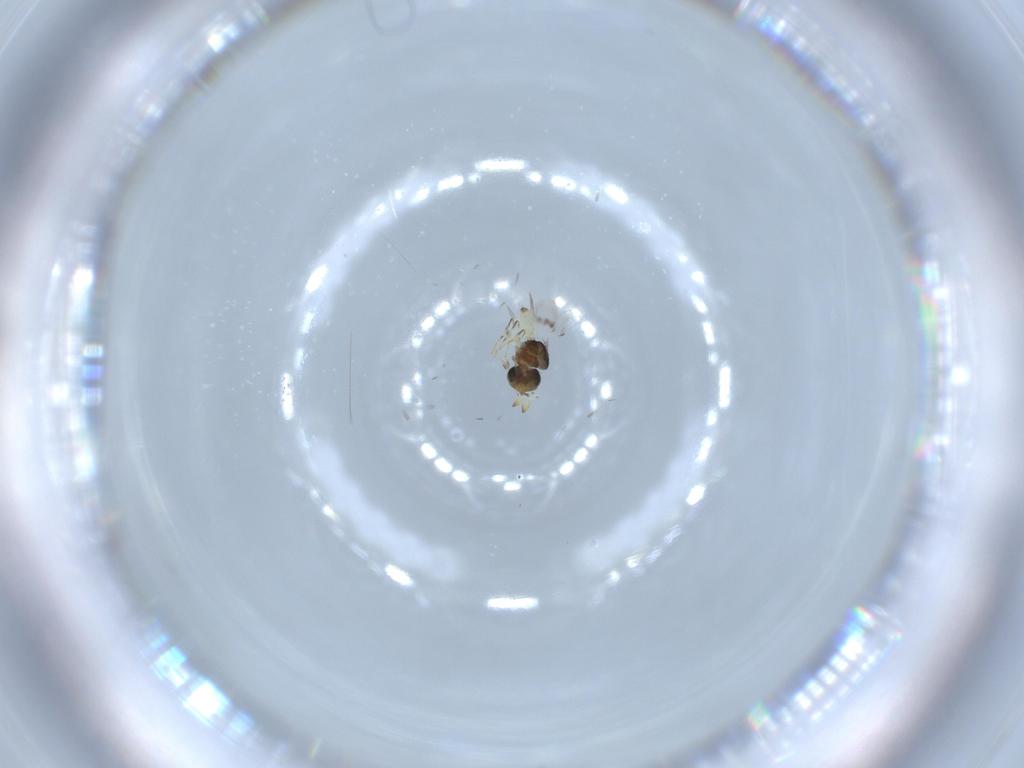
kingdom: Animalia
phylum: Arthropoda
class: Insecta
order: Hymenoptera
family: Scelionidae
